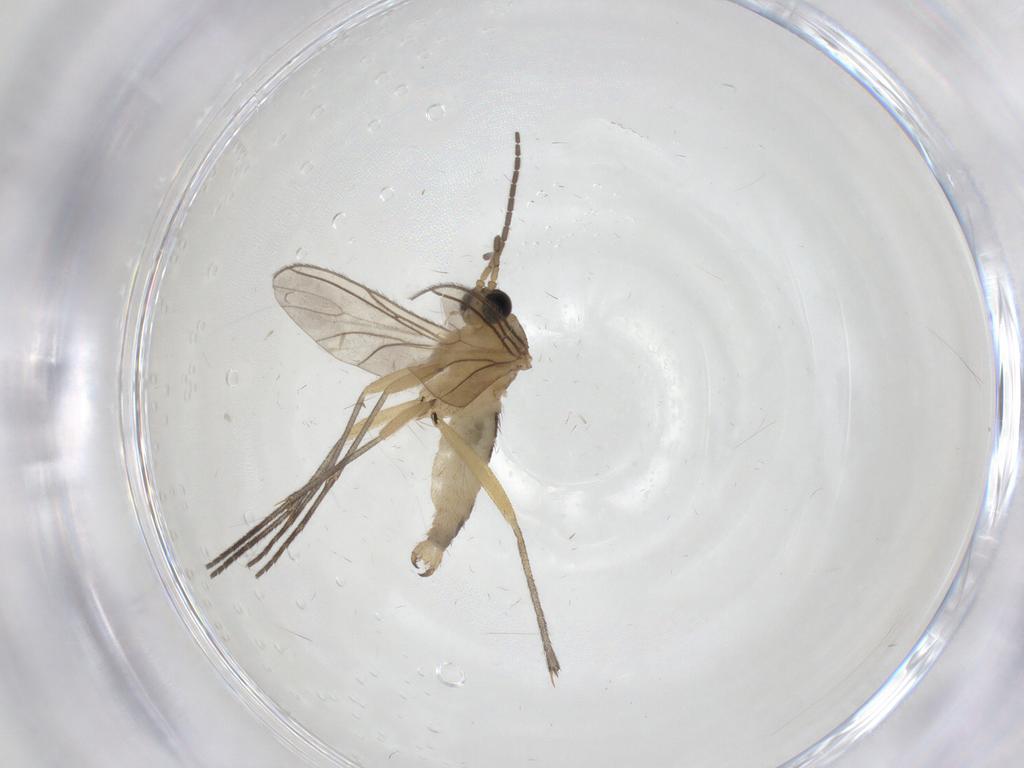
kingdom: Animalia
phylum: Arthropoda
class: Insecta
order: Diptera
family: Sciaridae
